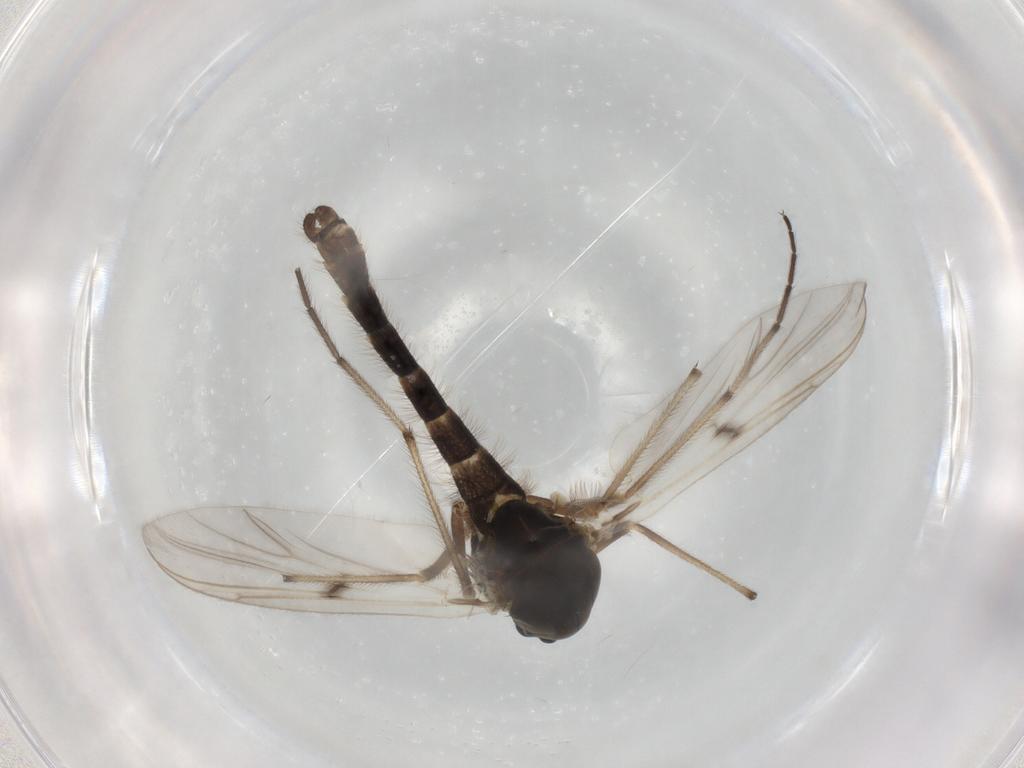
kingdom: Animalia
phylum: Arthropoda
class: Insecta
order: Diptera
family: Chironomidae
